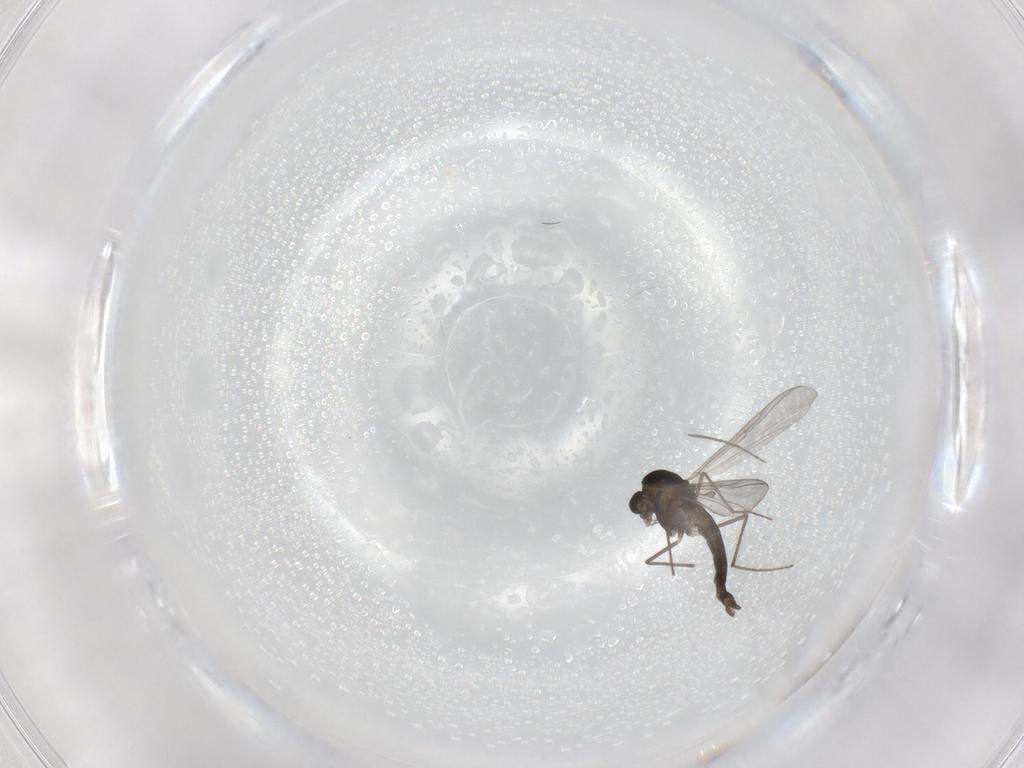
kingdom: Animalia
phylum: Arthropoda
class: Insecta
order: Diptera
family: Dolichopodidae
